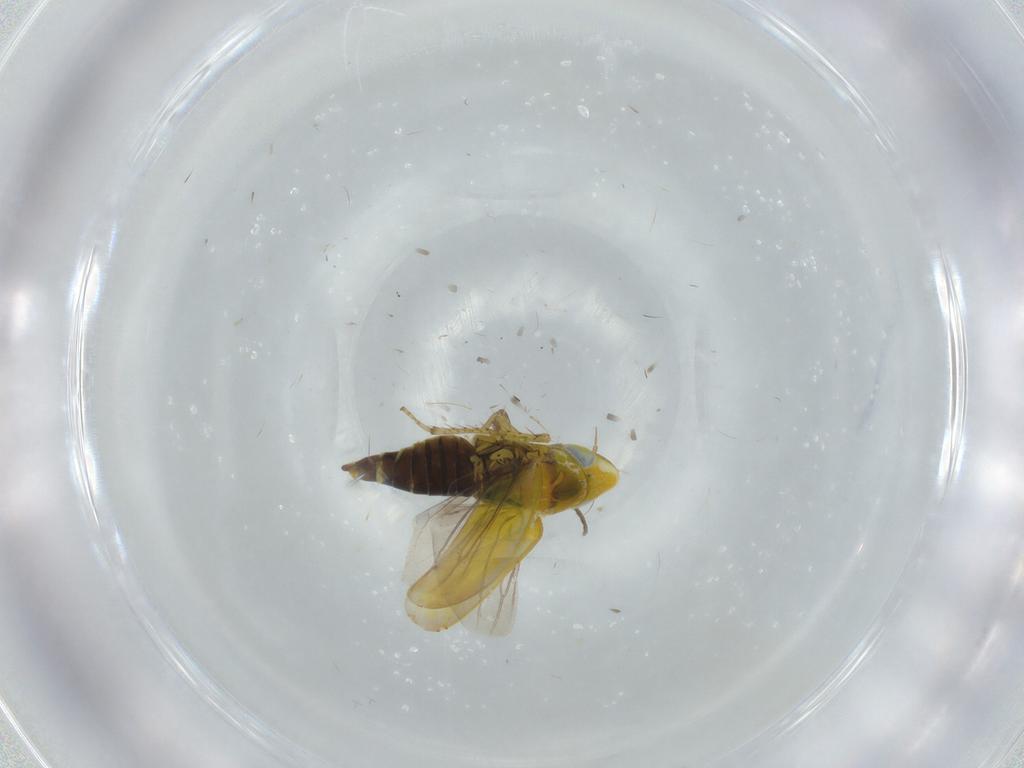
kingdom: Animalia
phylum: Arthropoda
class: Insecta
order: Hemiptera
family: Cicadellidae
